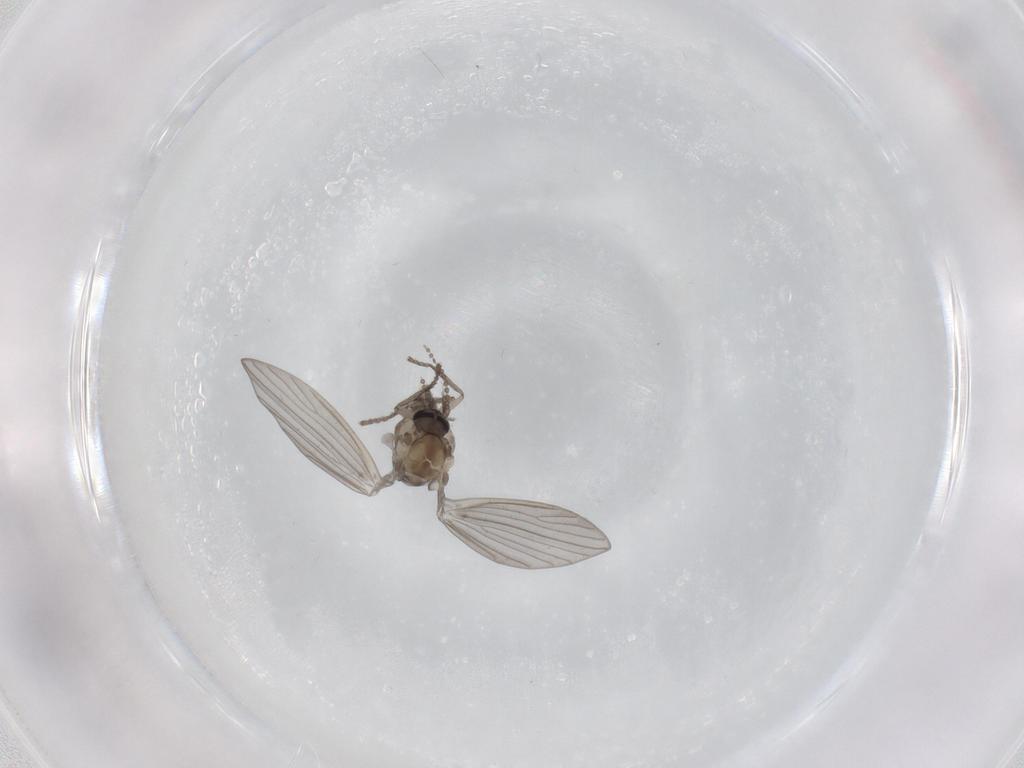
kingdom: Animalia
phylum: Arthropoda
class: Insecta
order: Diptera
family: Psychodidae
